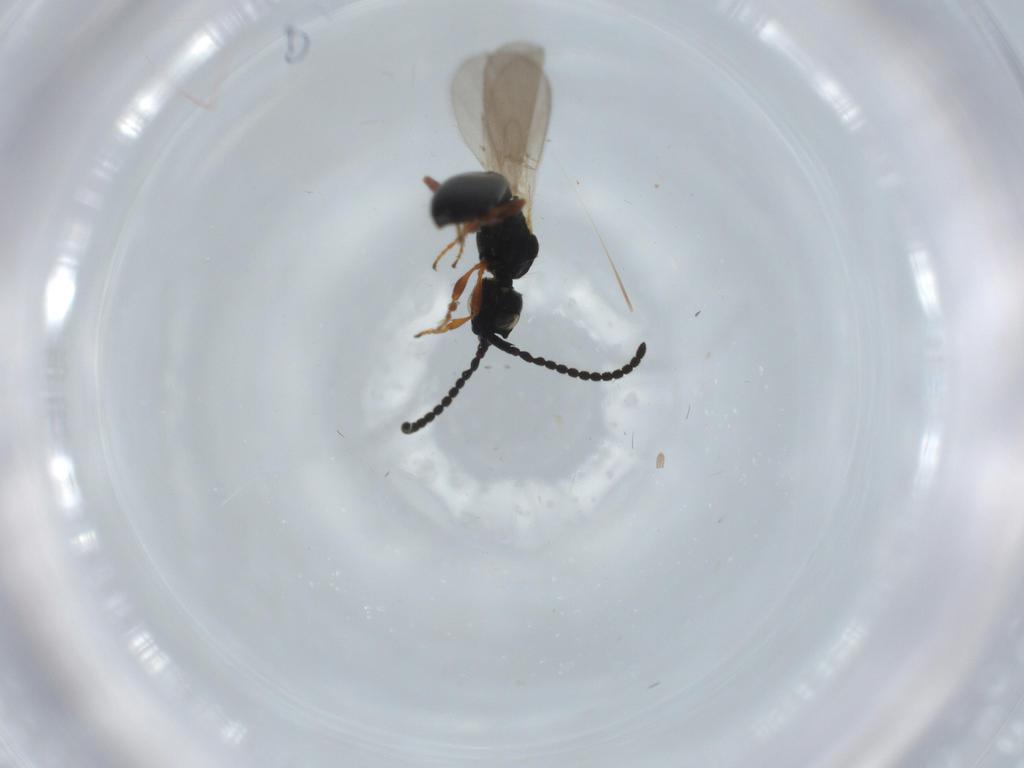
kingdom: Animalia
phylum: Arthropoda
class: Insecta
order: Hymenoptera
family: Diapriidae
